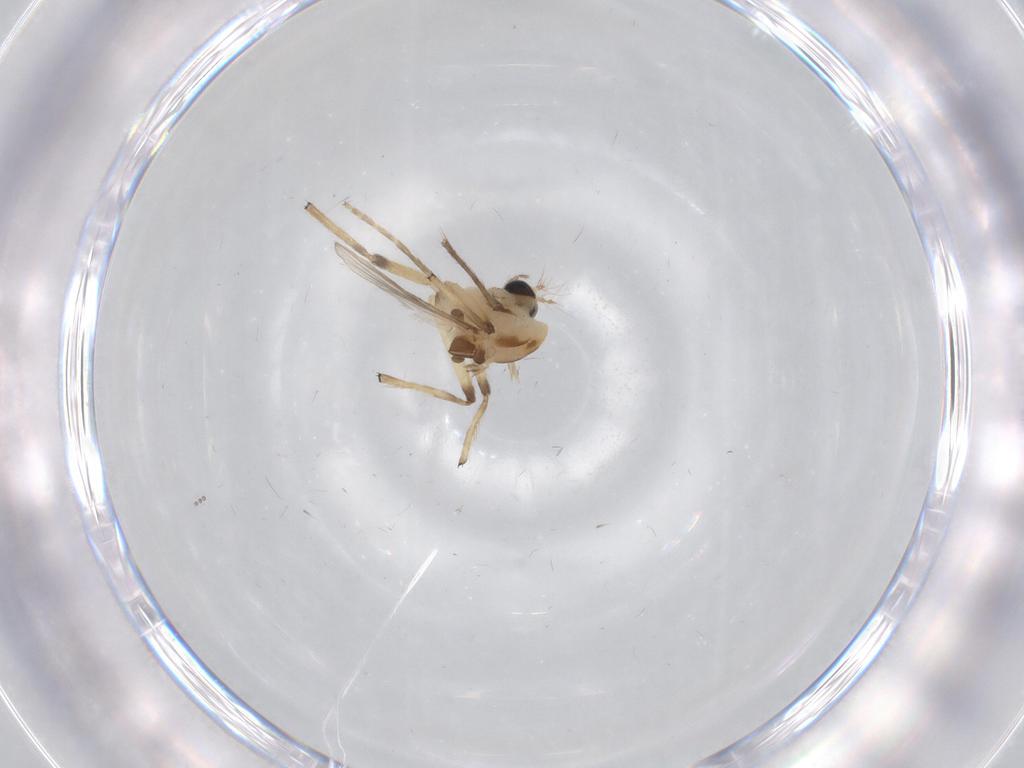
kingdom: Animalia
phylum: Arthropoda
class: Insecta
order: Diptera
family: Chironomidae
